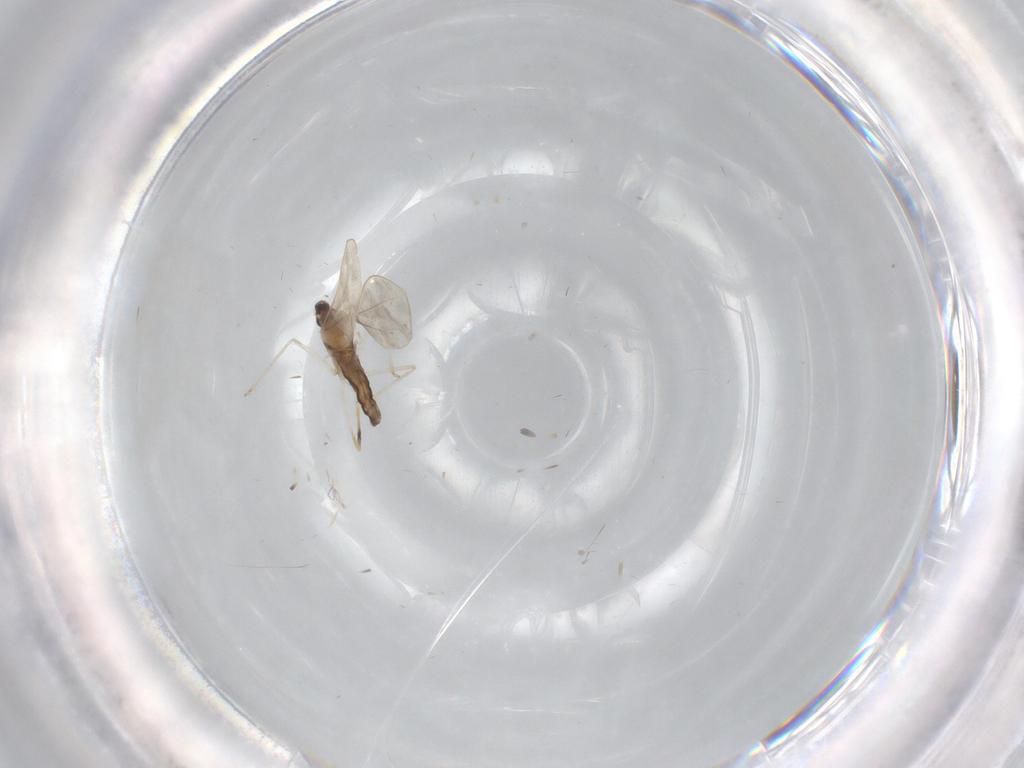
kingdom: Animalia
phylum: Arthropoda
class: Insecta
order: Diptera
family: Cecidomyiidae
